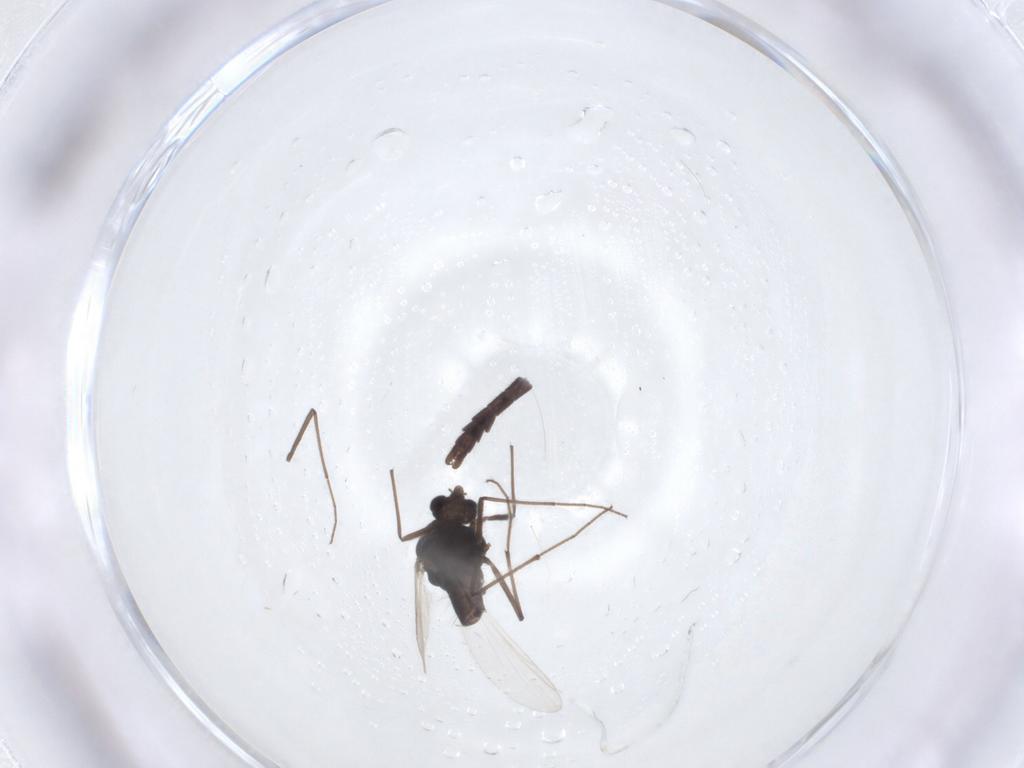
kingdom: Animalia
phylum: Arthropoda
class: Insecta
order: Diptera
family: Chironomidae
